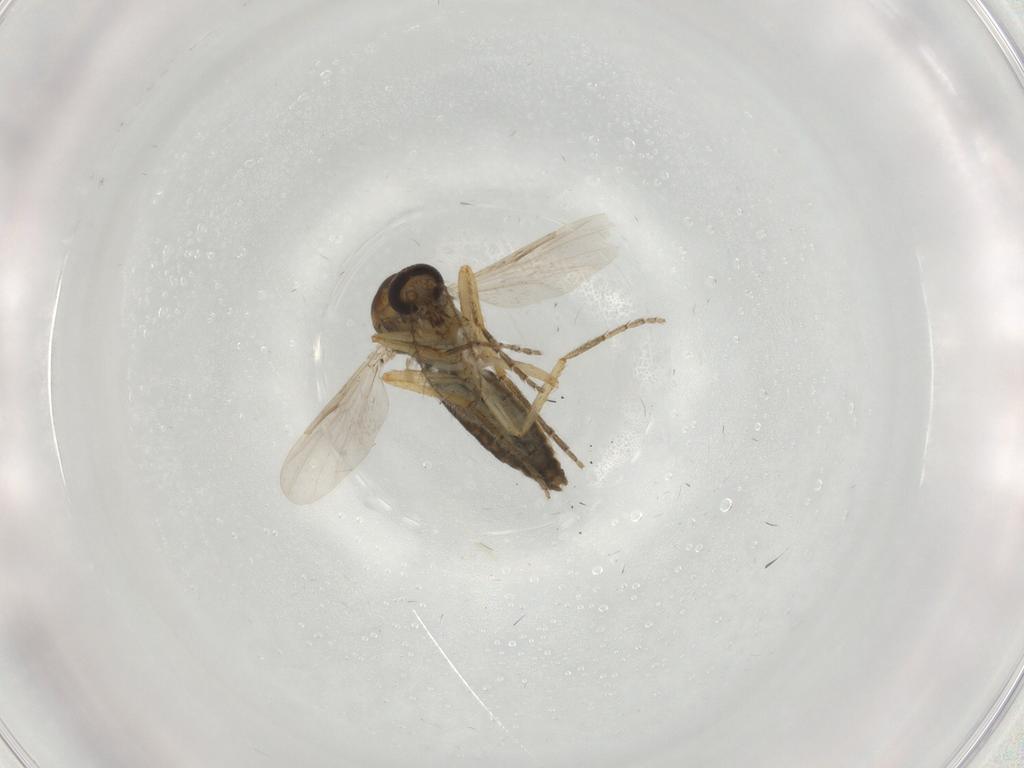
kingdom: Animalia
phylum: Arthropoda
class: Insecta
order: Diptera
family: Ceratopogonidae
